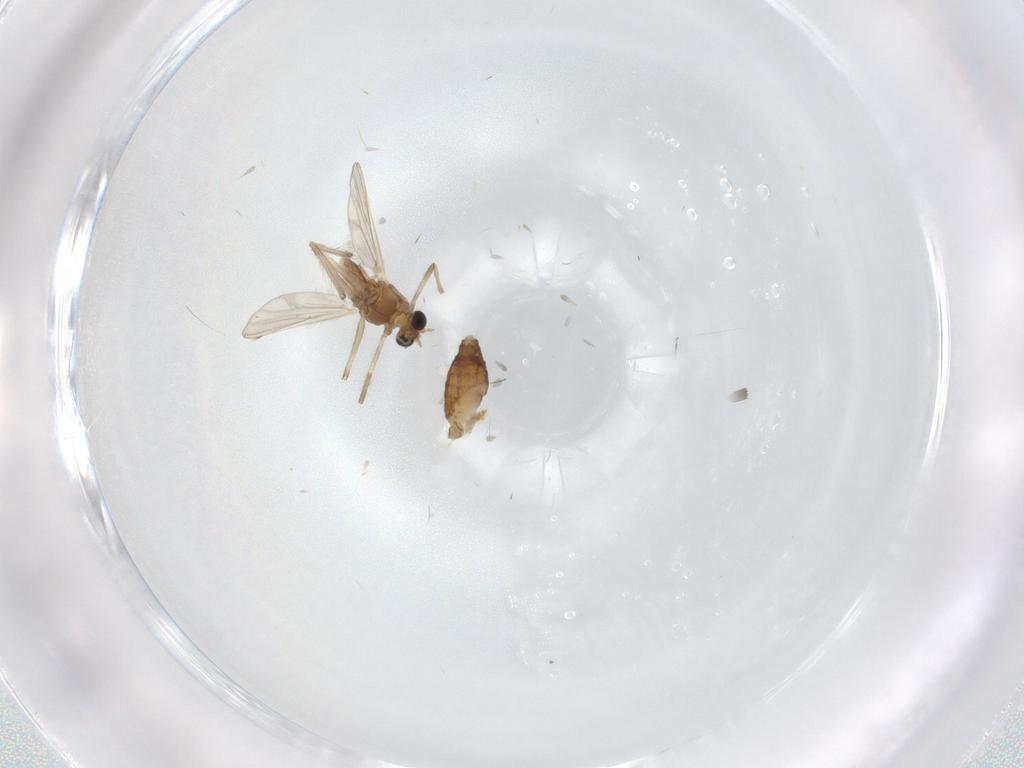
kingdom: Animalia
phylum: Arthropoda
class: Insecta
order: Diptera
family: Chironomidae
